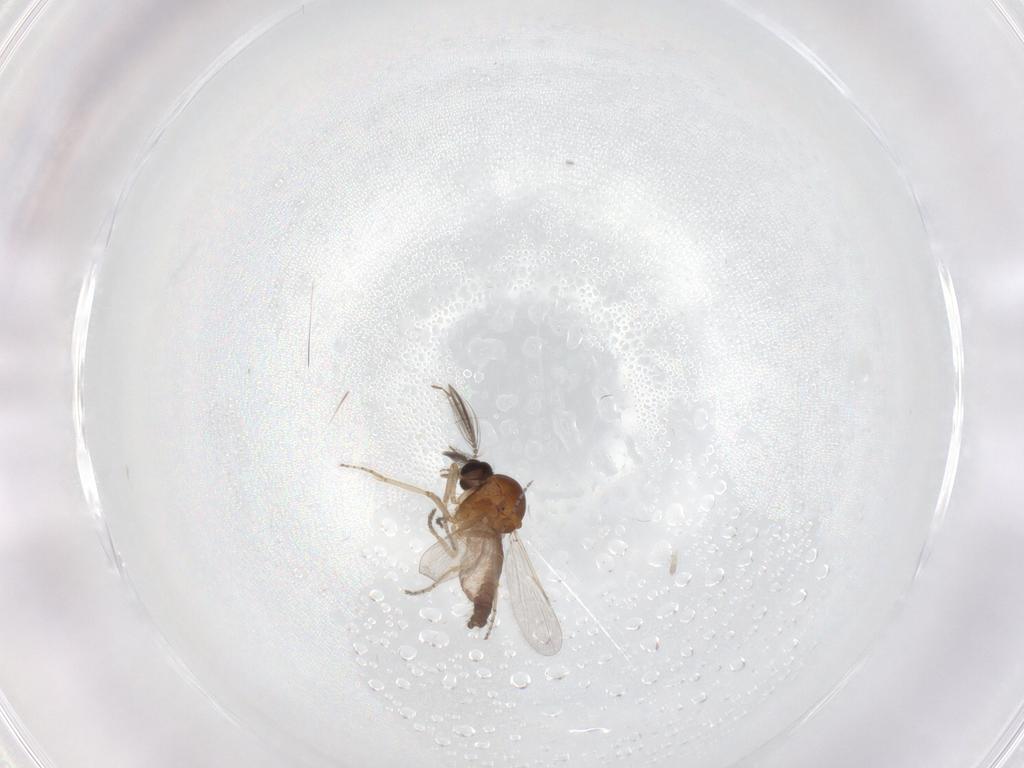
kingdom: Animalia
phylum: Arthropoda
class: Insecta
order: Diptera
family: Ceratopogonidae
